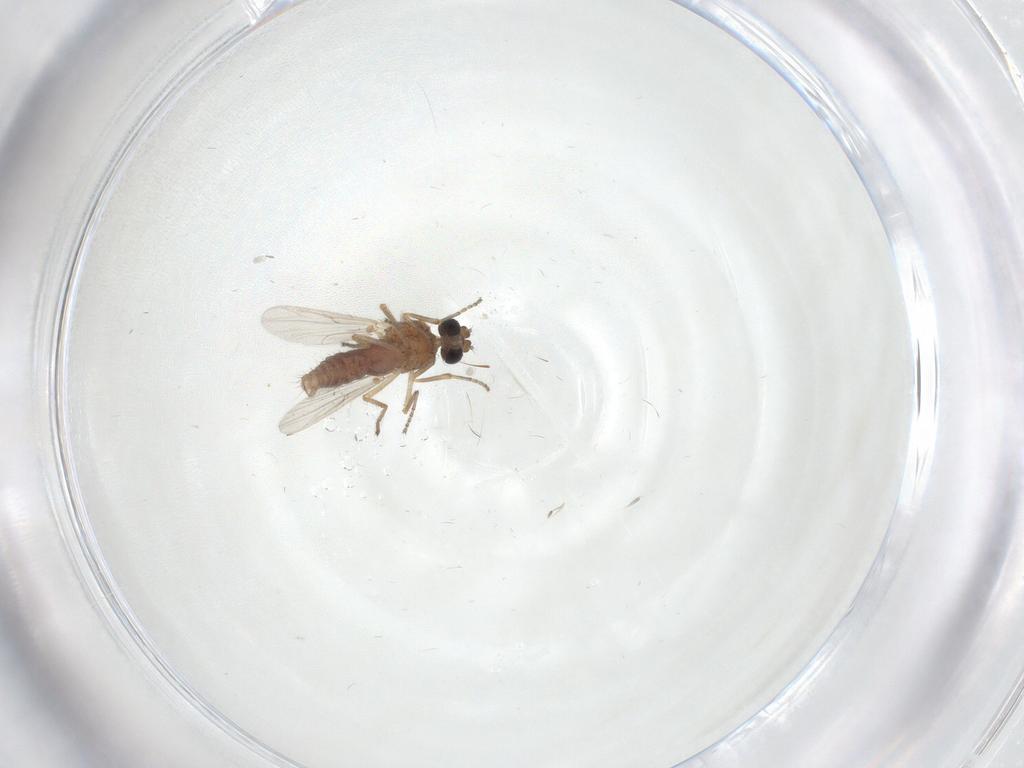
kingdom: Animalia
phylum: Arthropoda
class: Insecta
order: Diptera
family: Ceratopogonidae
